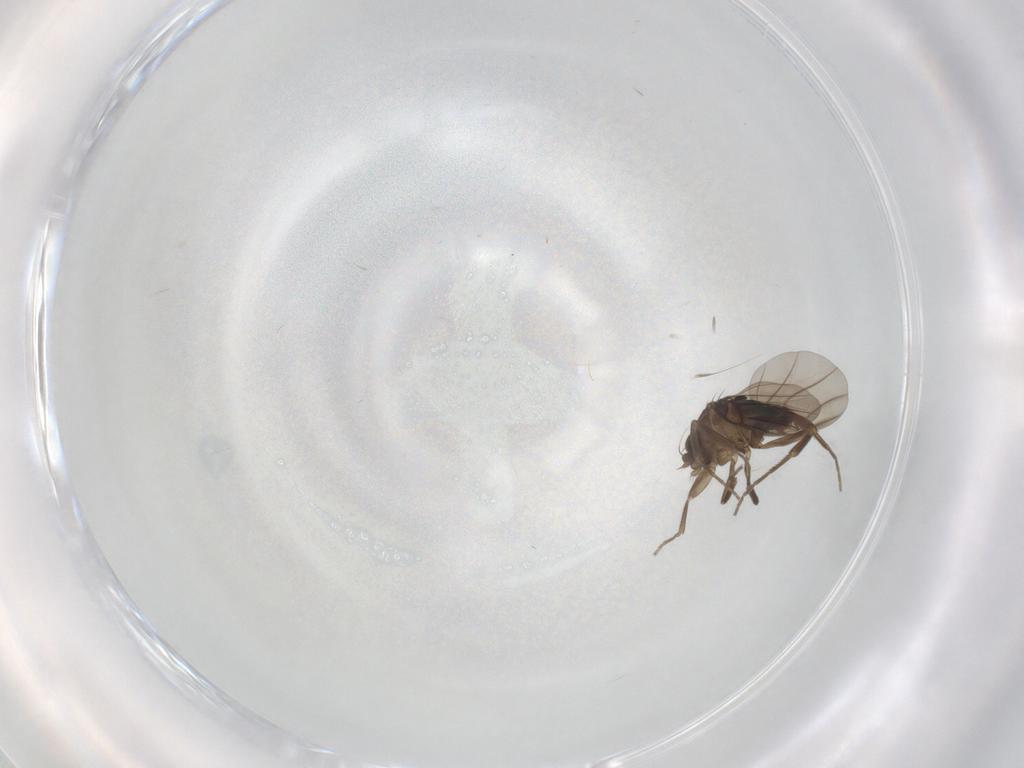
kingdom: Animalia
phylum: Arthropoda
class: Insecta
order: Diptera
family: Phoridae
